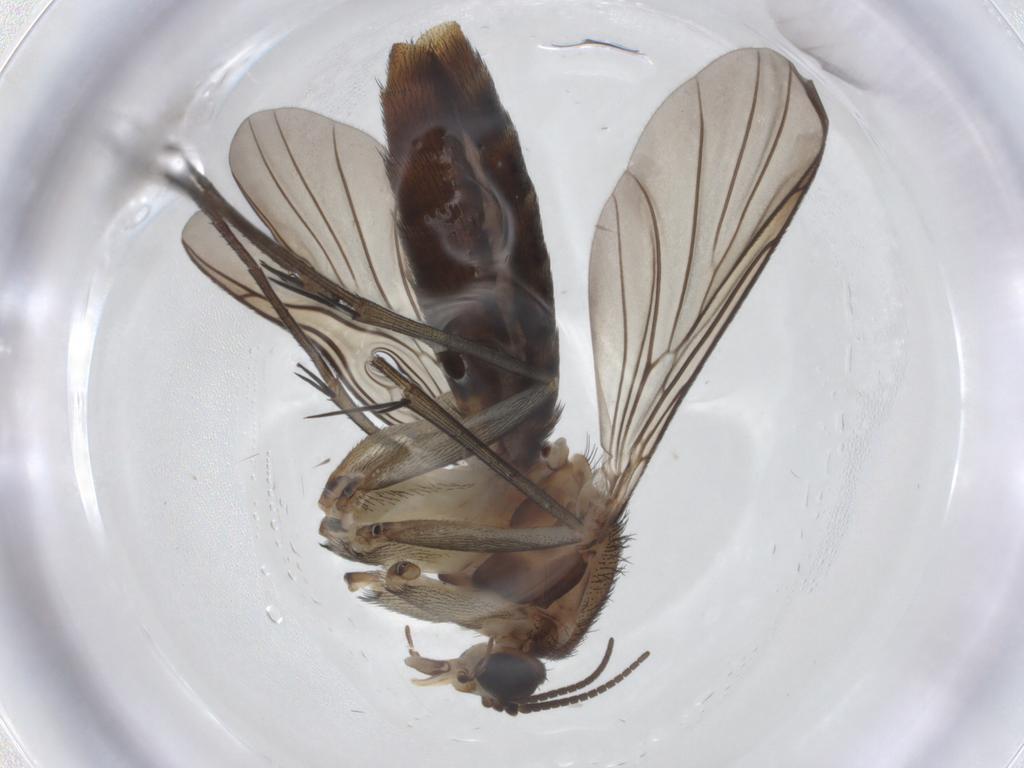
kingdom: Animalia
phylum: Arthropoda
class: Insecta
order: Diptera
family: Keroplatidae
